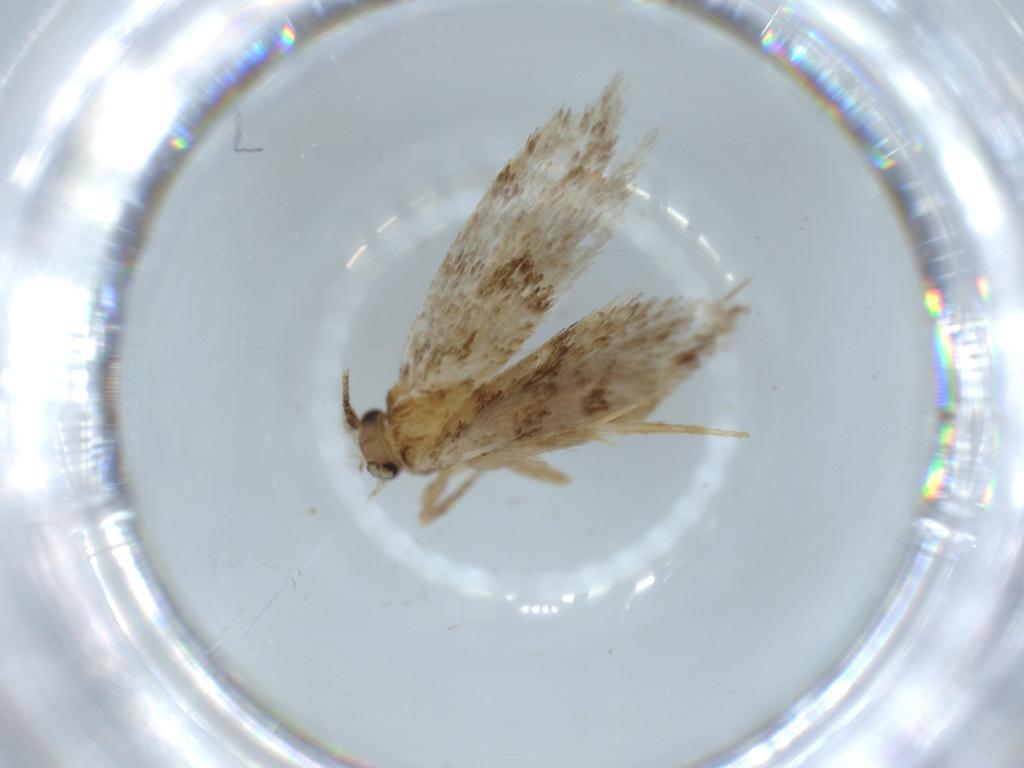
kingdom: Animalia
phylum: Arthropoda
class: Insecta
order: Lepidoptera
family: Tineidae
